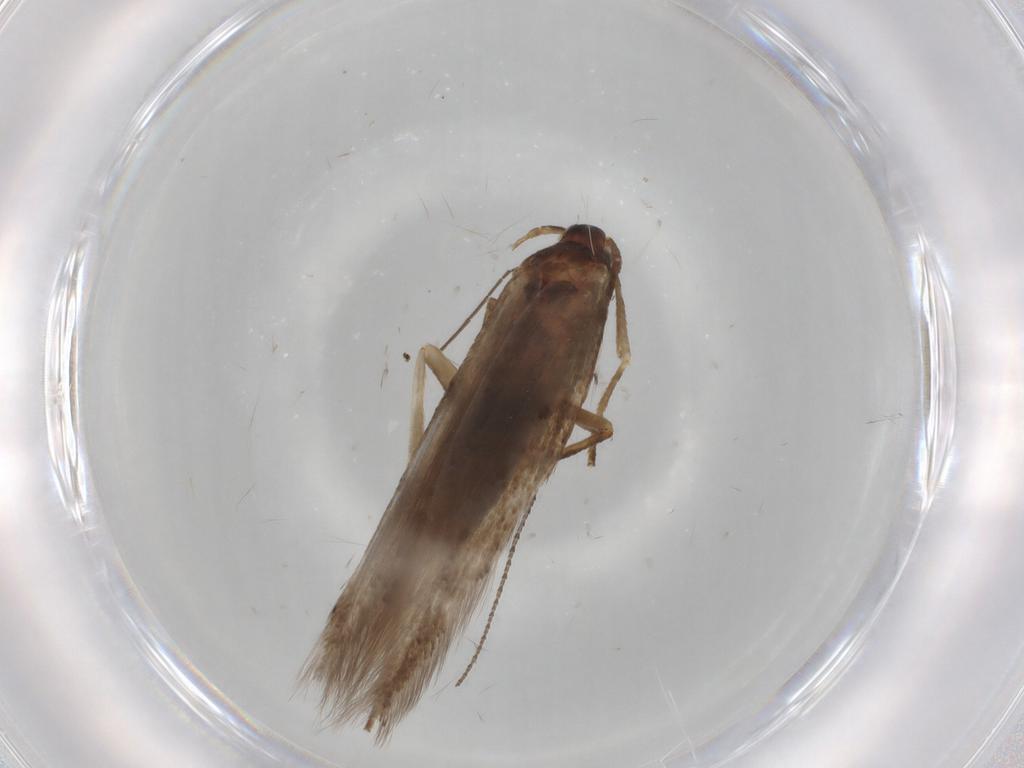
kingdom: Animalia
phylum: Arthropoda
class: Insecta
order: Lepidoptera
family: Erebidae
